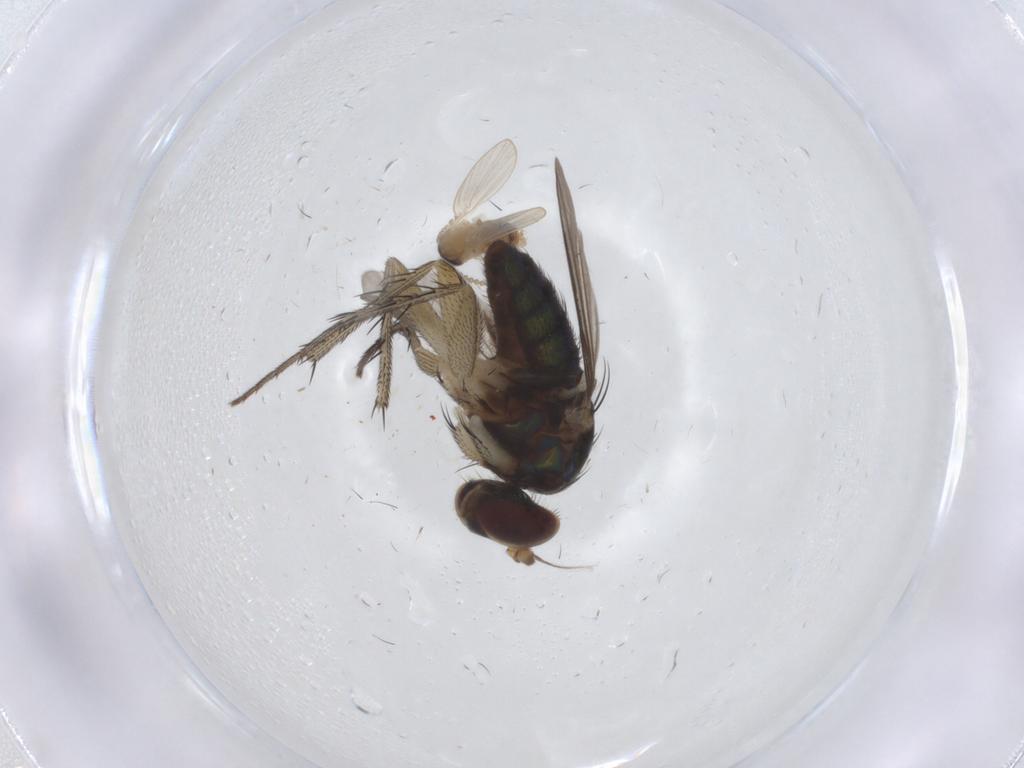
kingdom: Animalia
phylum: Arthropoda
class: Insecta
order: Diptera
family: Dolichopodidae
